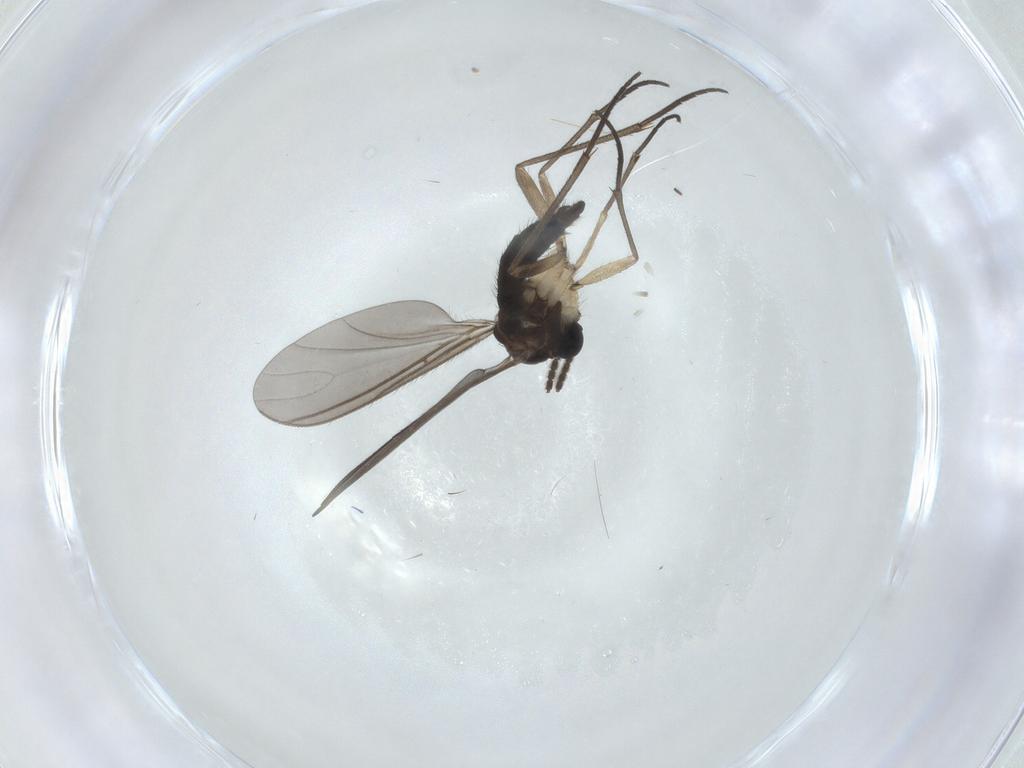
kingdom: Animalia
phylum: Arthropoda
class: Insecta
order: Diptera
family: Sciaridae
